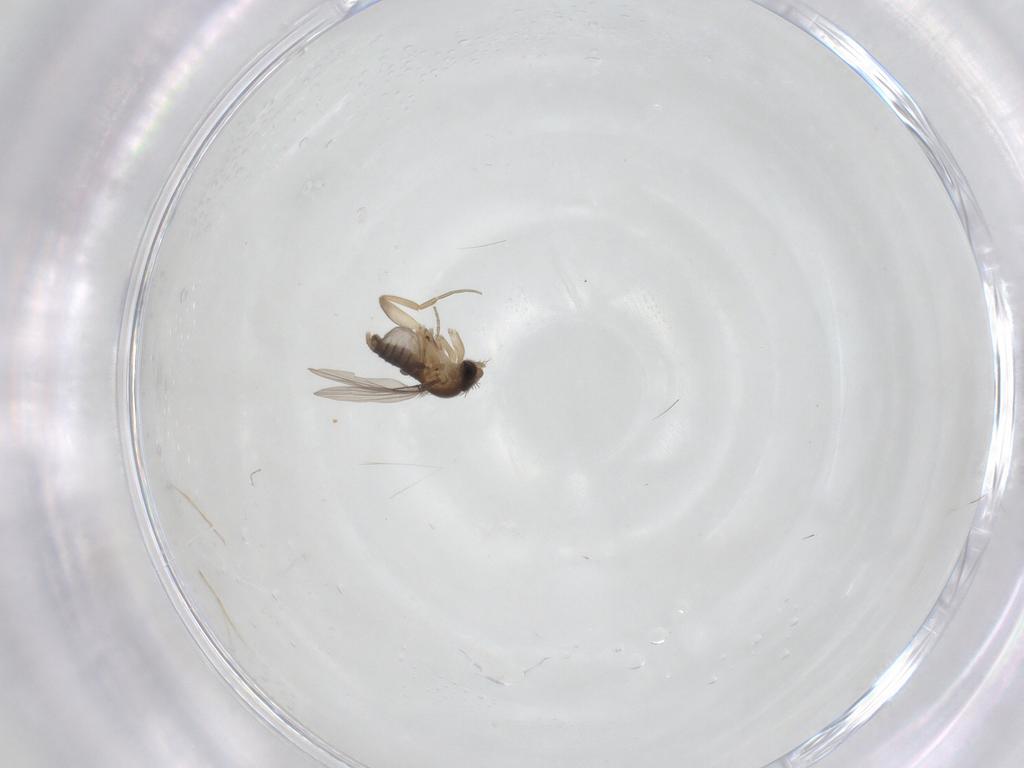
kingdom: Animalia
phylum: Arthropoda
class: Insecta
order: Diptera
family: Phoridae
